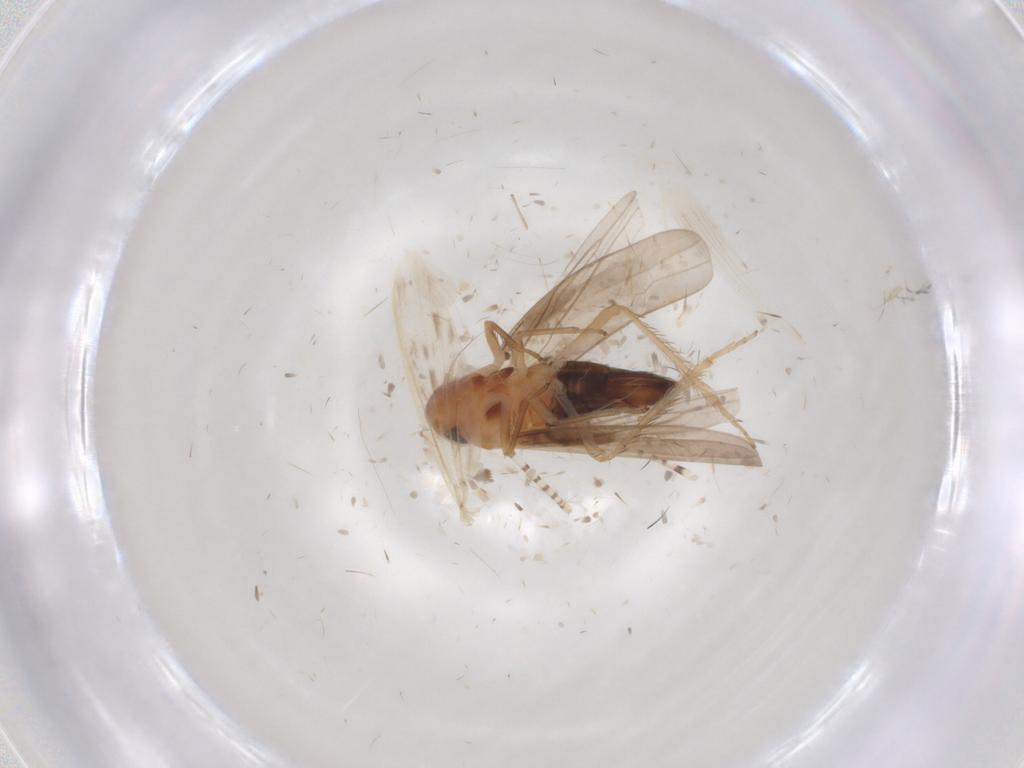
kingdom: Animalia
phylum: Arthropoda
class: Insecta
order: Hemiptera
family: Cicadellidae
